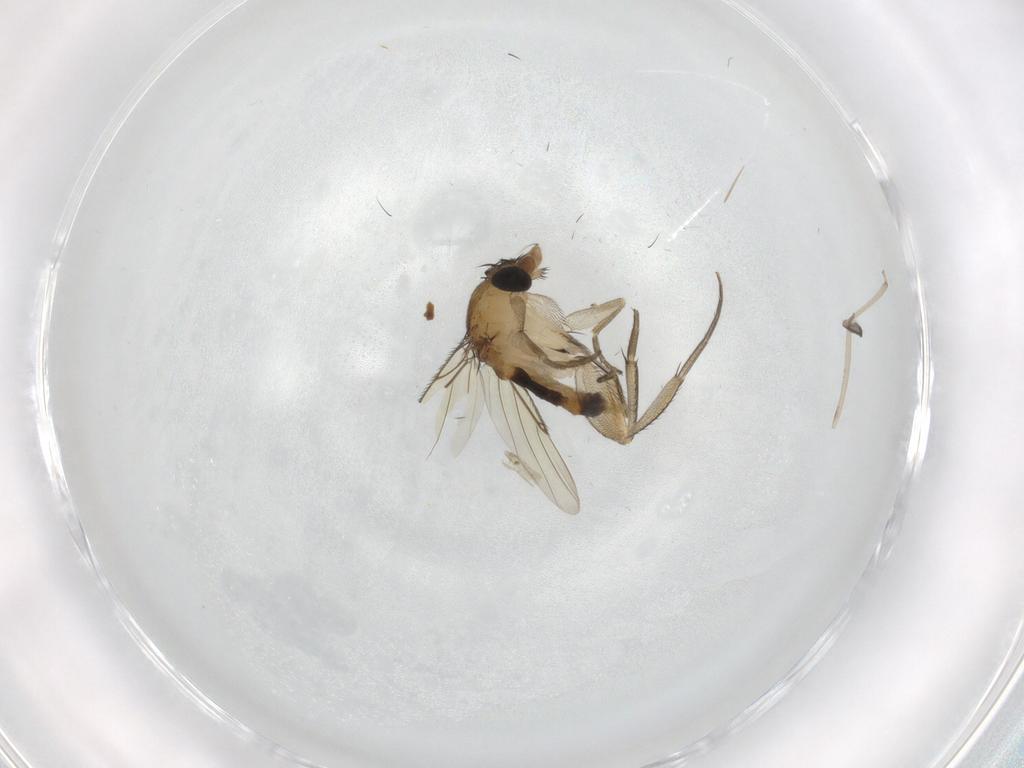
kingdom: Animalia
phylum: Arthropoda
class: Insecta
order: Diptera
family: Phoridae
